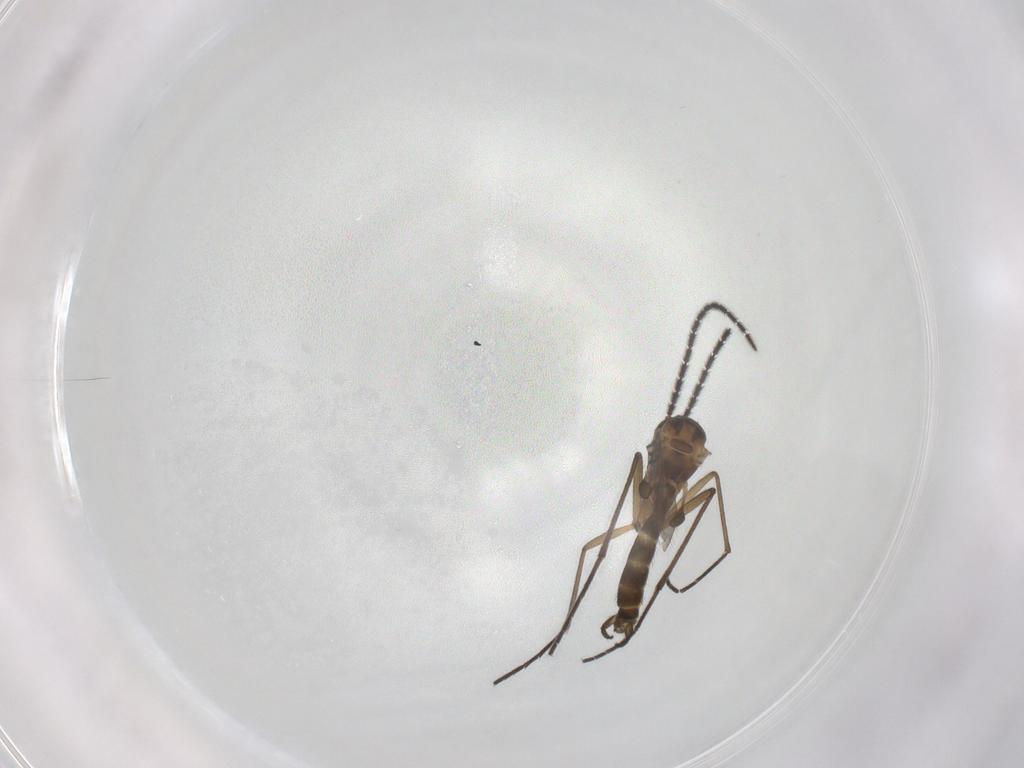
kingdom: Animalia
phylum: Arthropoda
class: Insecta
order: Diptera
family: Sciaridae
